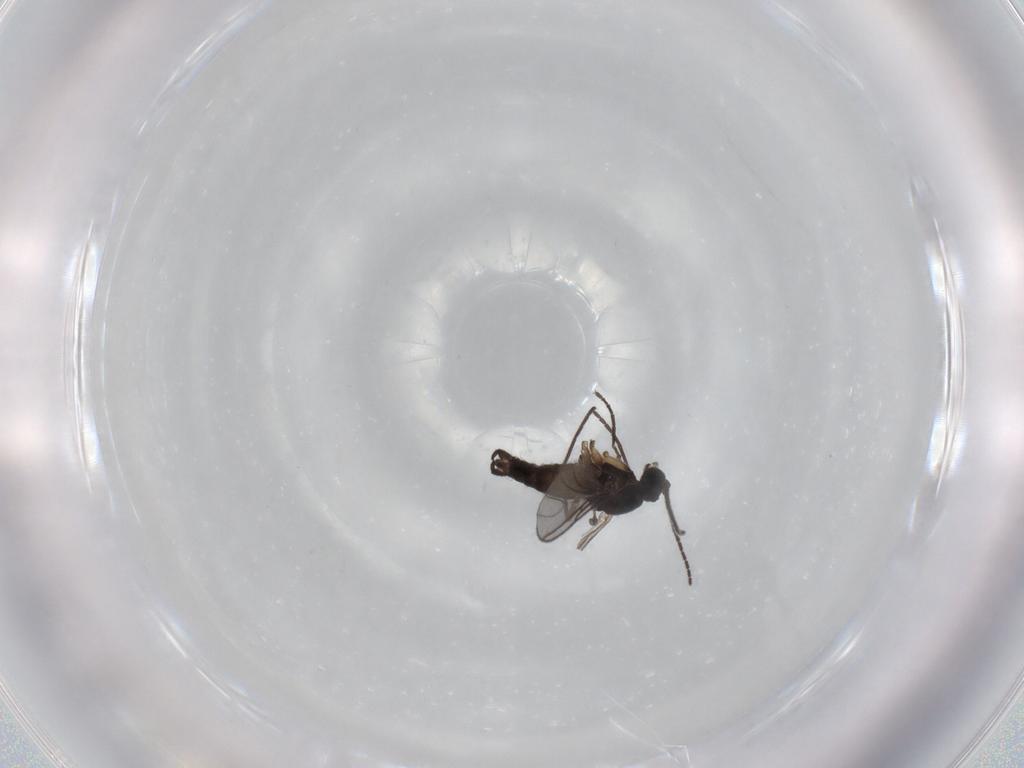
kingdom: Animalia
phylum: Arthropoda
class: Insecta
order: Diptera
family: Sciaridae
